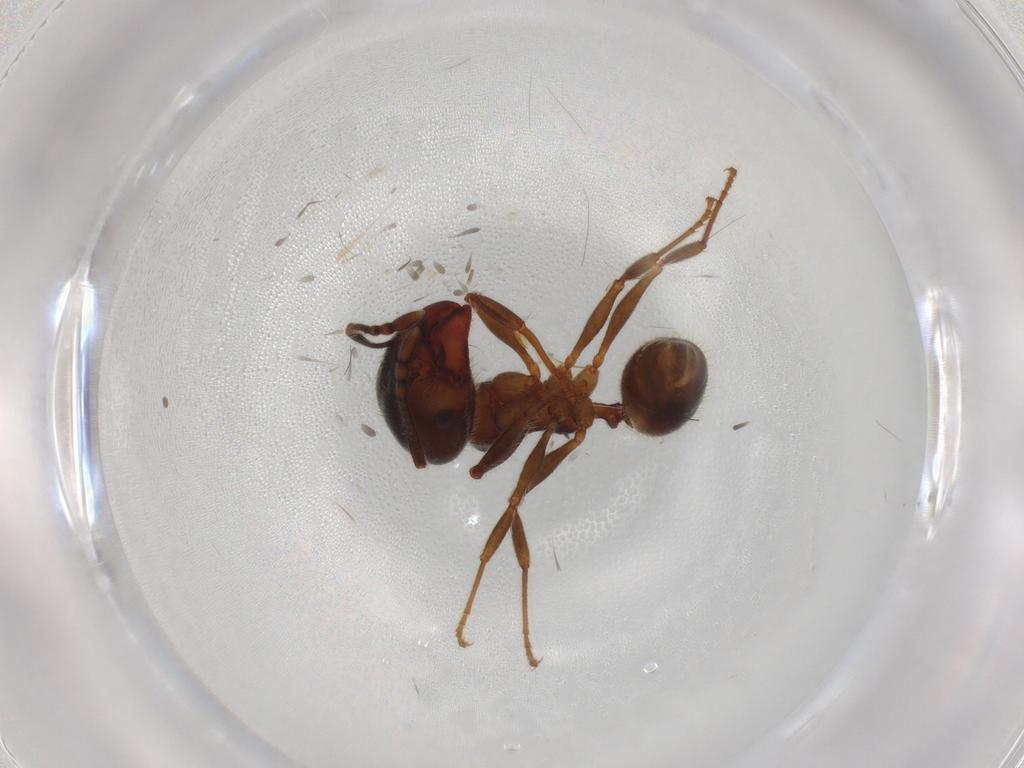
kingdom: Animalia
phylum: Arthropoda
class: Insecta
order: Hymenoptera
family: Formicidae
